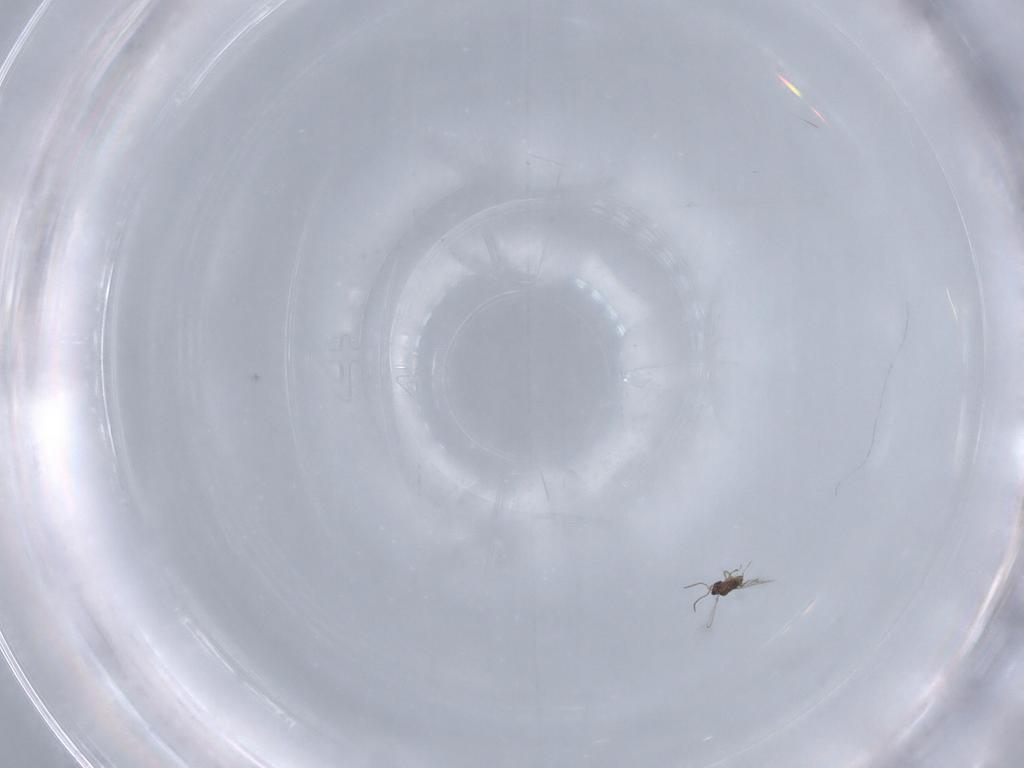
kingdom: Animalia
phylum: Arthropoda
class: Insecta
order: Hymenoptera
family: Mymaridae
